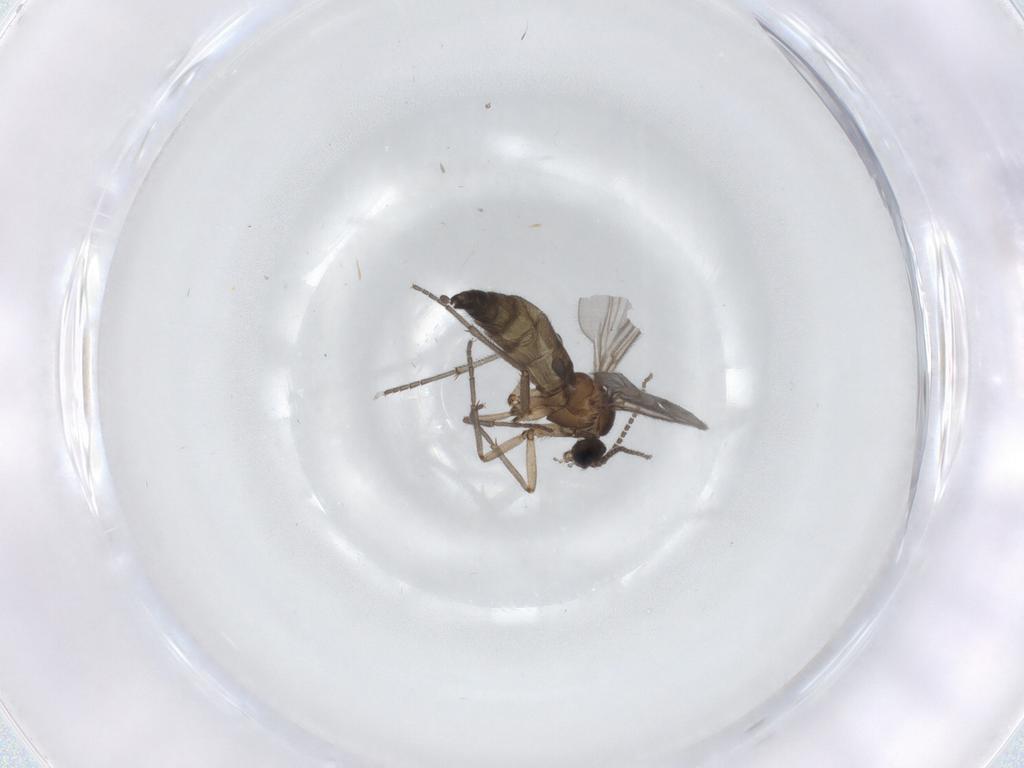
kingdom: Animalia
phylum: Arthropoda
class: Insecta
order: Diptera
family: Sciaridae
